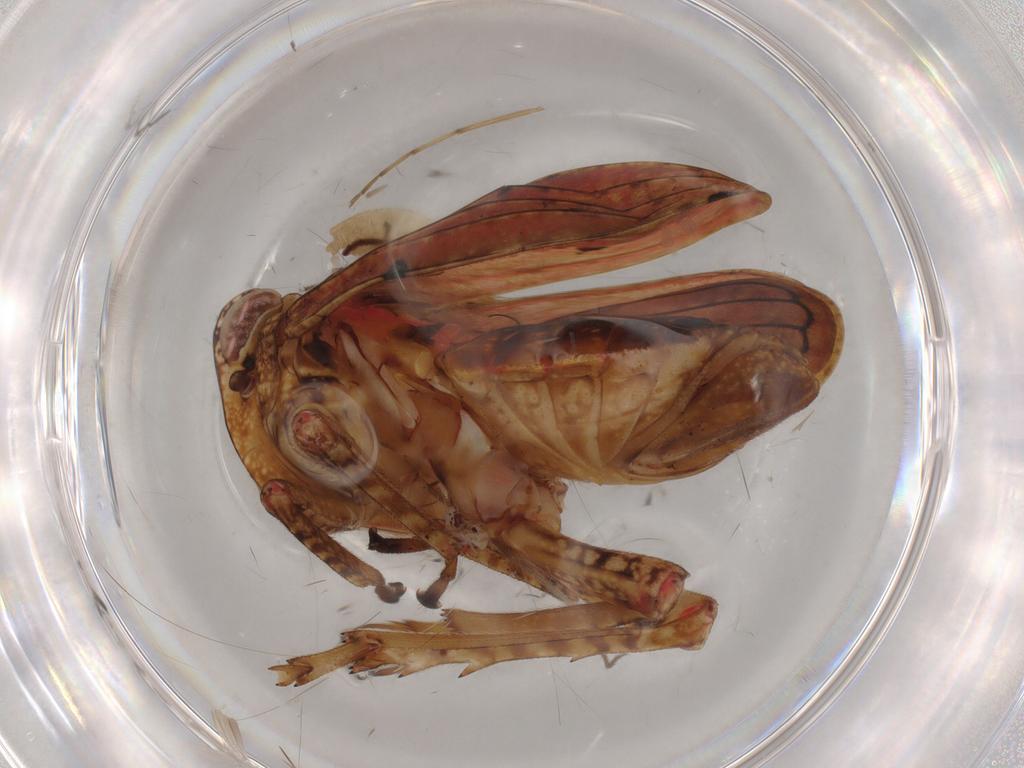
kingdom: Animalia
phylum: Arthropoda
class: Insecta
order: Hemiptera
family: Tropiduchidae
